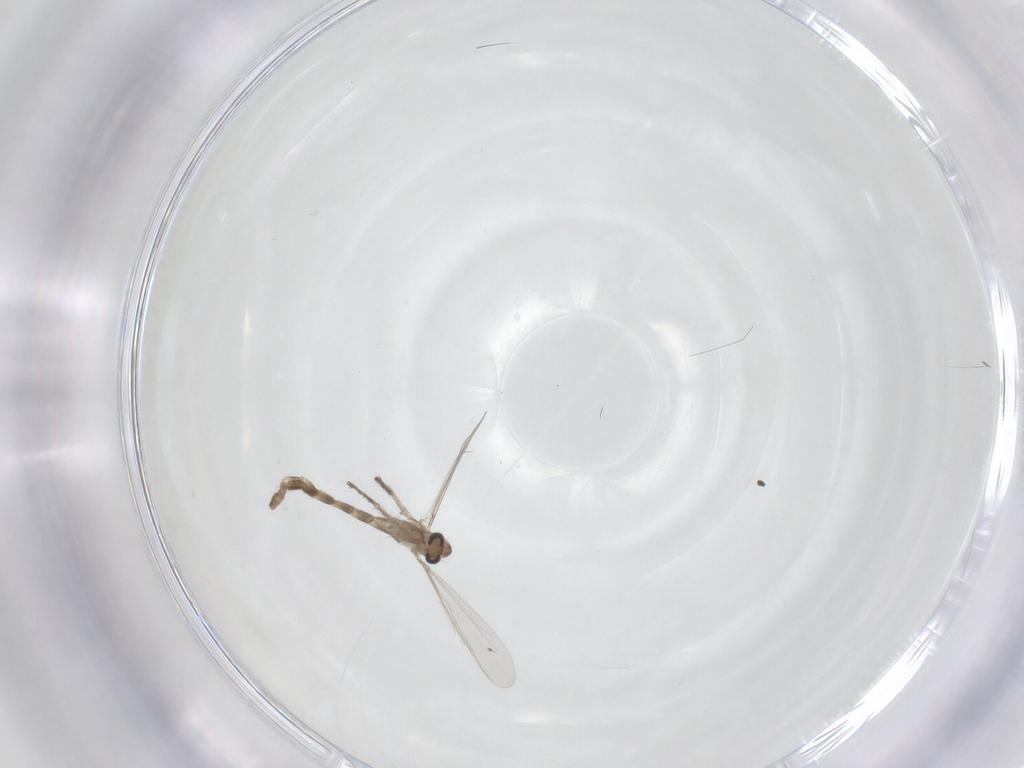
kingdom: Animalia
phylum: Arthropoda
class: Insecta
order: Diptera
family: Chironomidae
